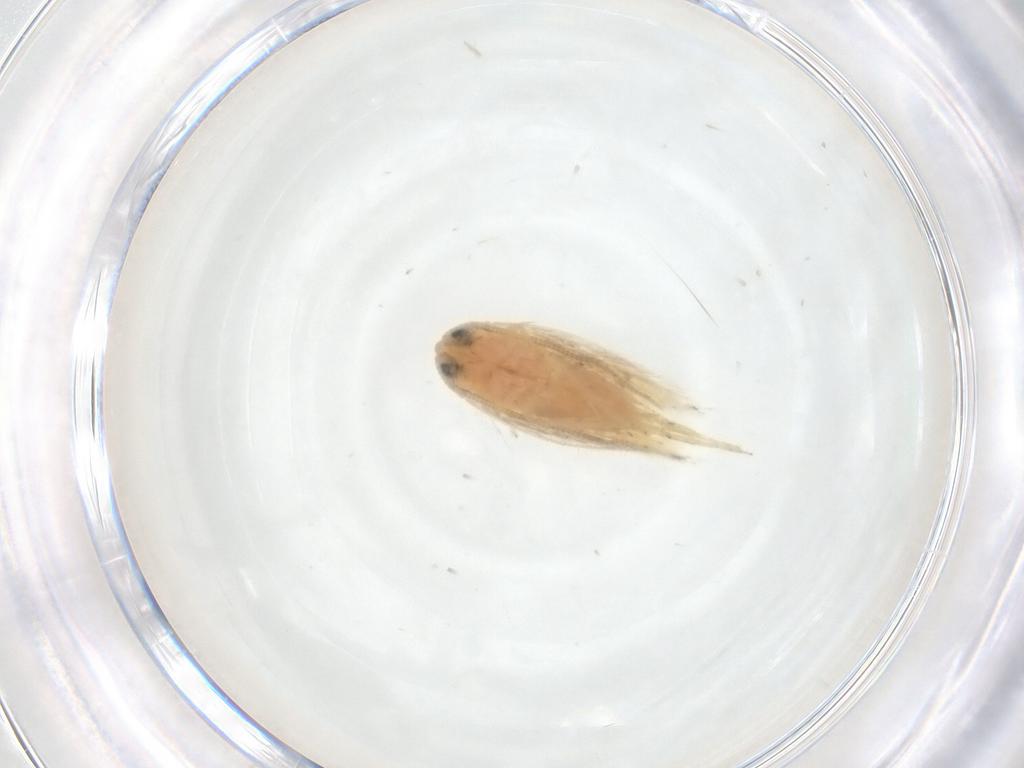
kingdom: Animalia
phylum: Arthropoda
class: Insecta
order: Lepidoptera
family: Opostegidae
